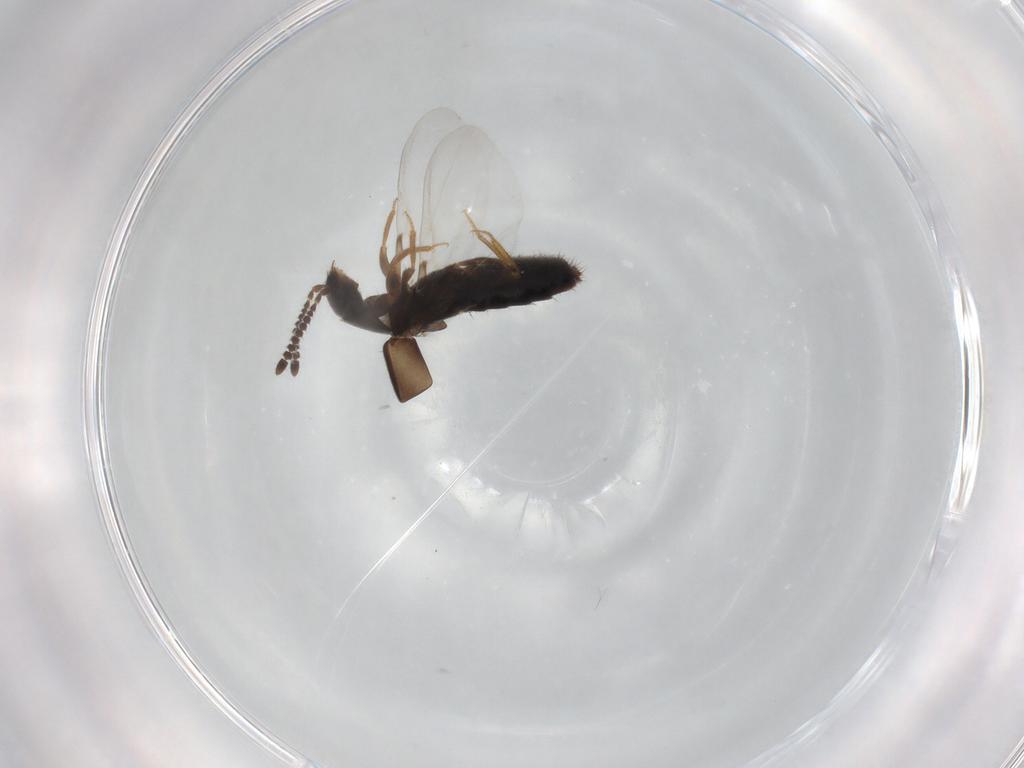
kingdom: Animalia
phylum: Arthropoda
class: Insecta
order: Coleoptera
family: Staphylinidae
